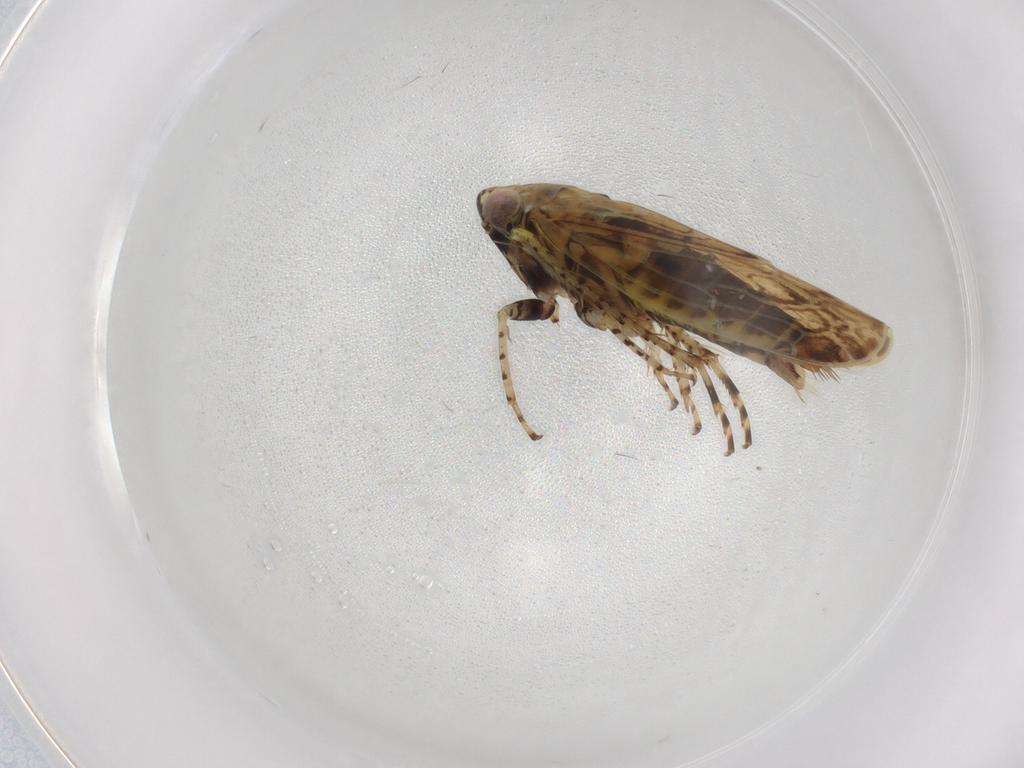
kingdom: Animalia
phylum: Arthropoda
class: Insecta
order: Hemiptera
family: Cicadellidae
